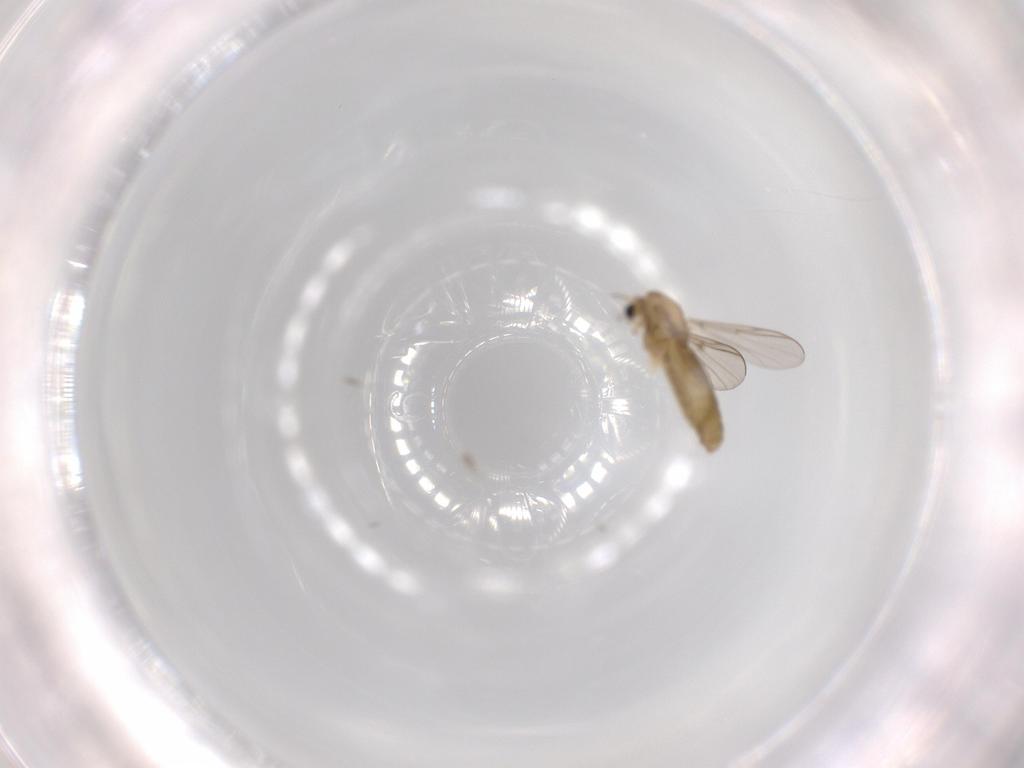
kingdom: Animalia
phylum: Arthropoda
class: Insecta
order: Diptera
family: Chironomidae
